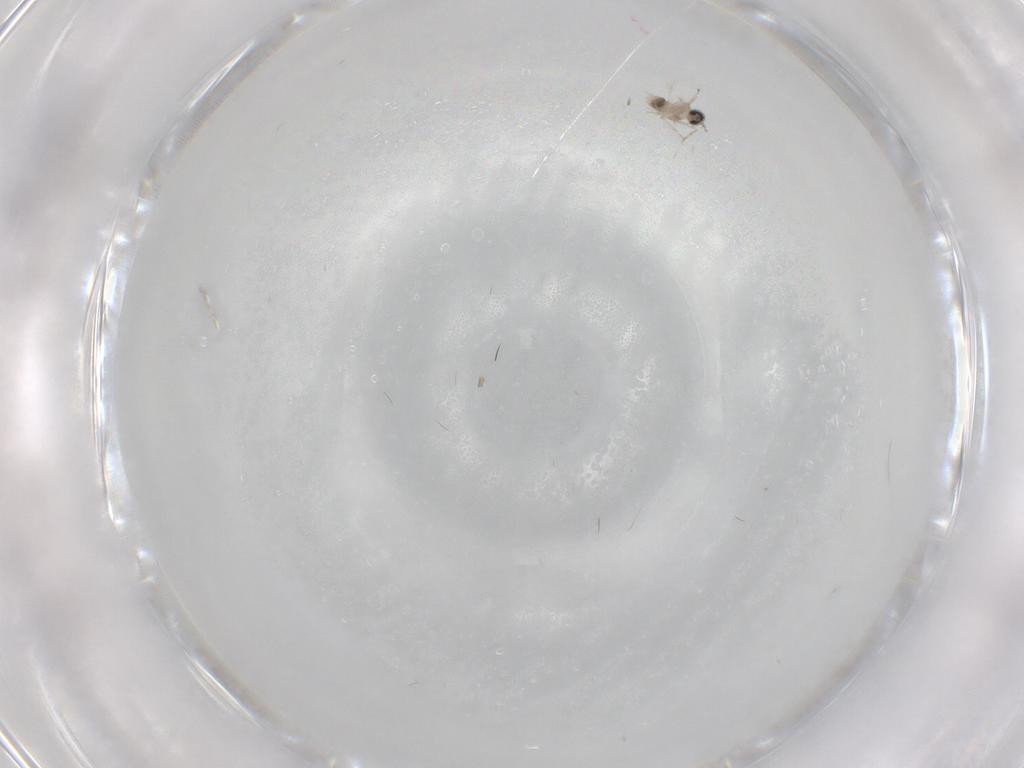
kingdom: Animalia
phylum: Arthropoda
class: Insecta
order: Diptera
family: Cecidomyiidae
